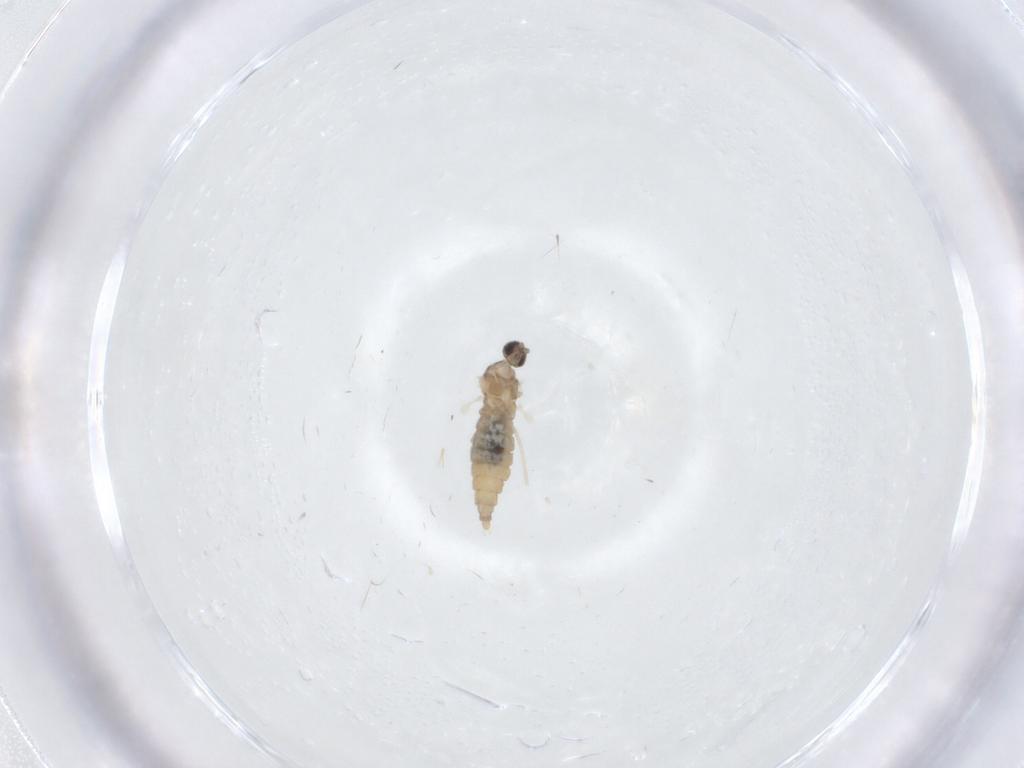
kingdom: Animalia
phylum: Arthropoda
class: Insecta
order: Diptera
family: Cecidomyiidae
